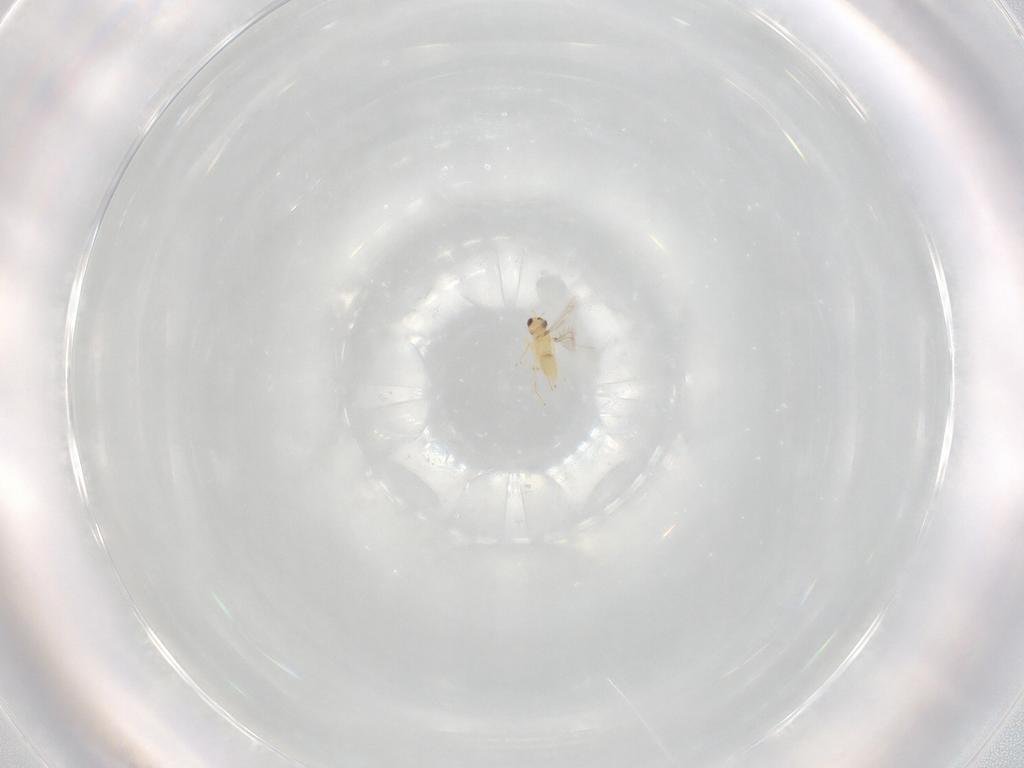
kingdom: Animalia
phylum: Arthropoda
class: Insecta
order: Hymenoptera
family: Mymaridae
